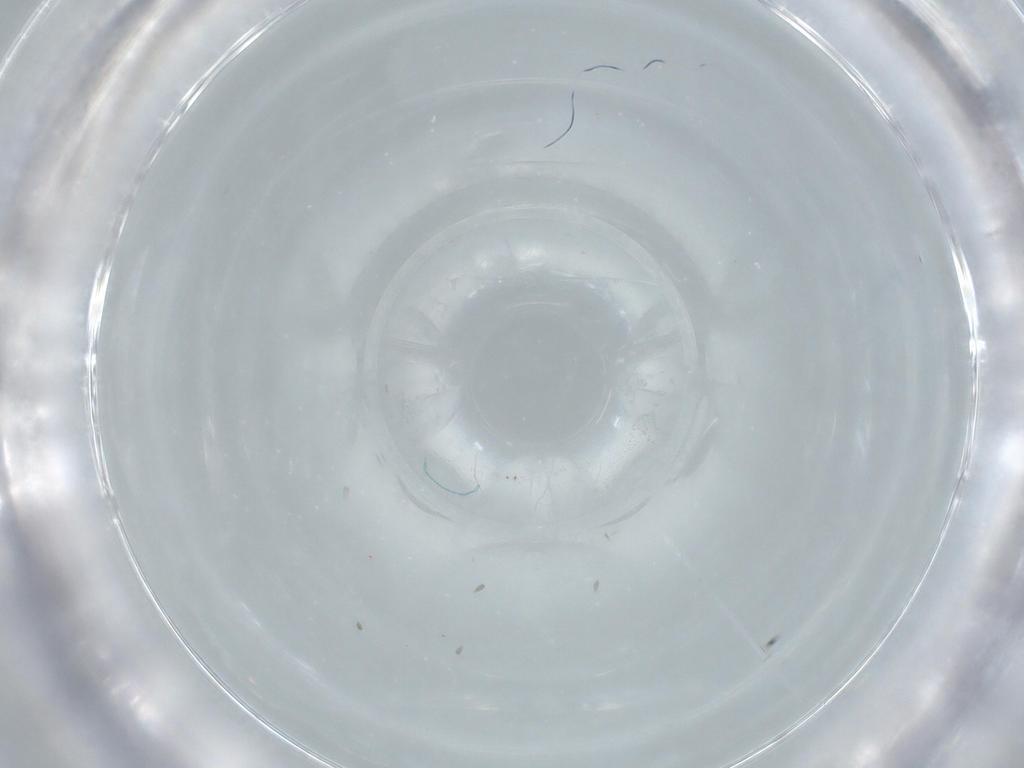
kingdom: Animalia
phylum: Arthropoda
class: Insecta
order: Hymenoptera
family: Mymaridae
